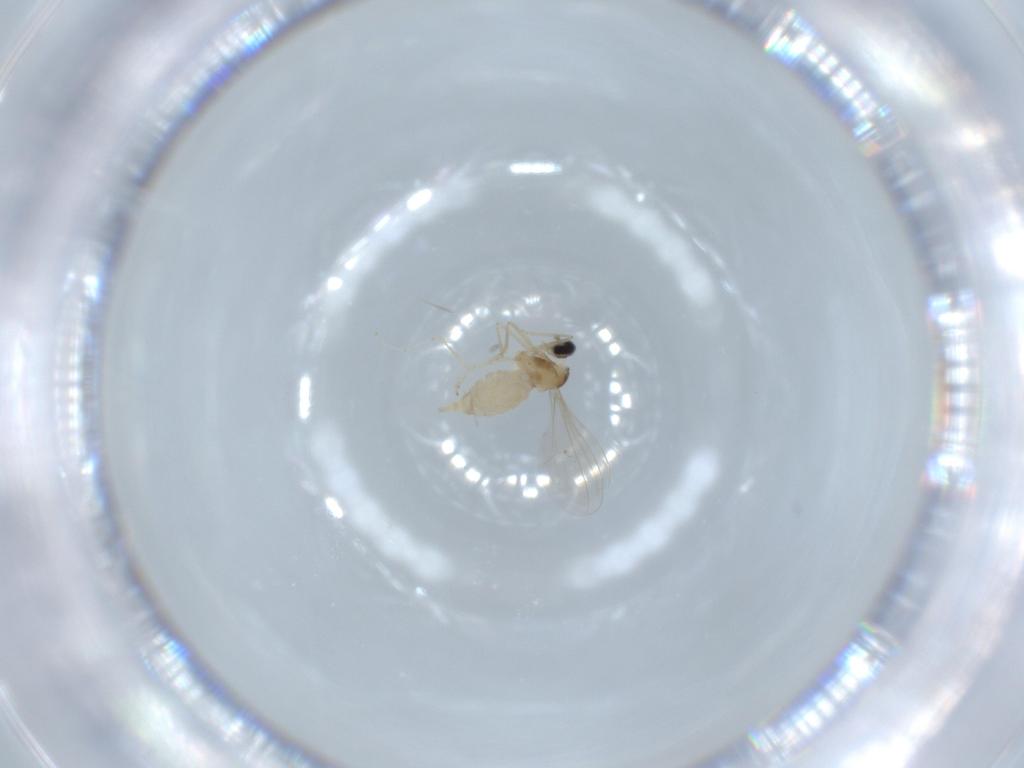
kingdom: Animalia
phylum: Arthropoda
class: Insecta
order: Diptera
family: Cecidomyiidae
